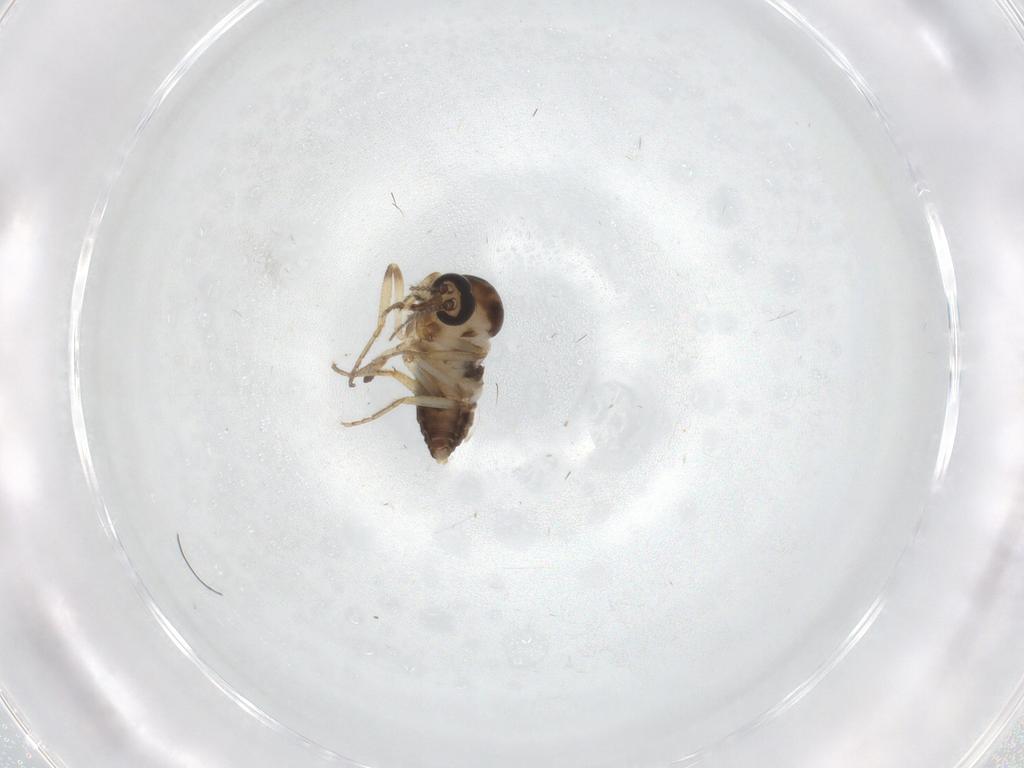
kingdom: Animalia
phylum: Arthropoda
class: Insecta
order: Diptera
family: Ceratopogonidae
